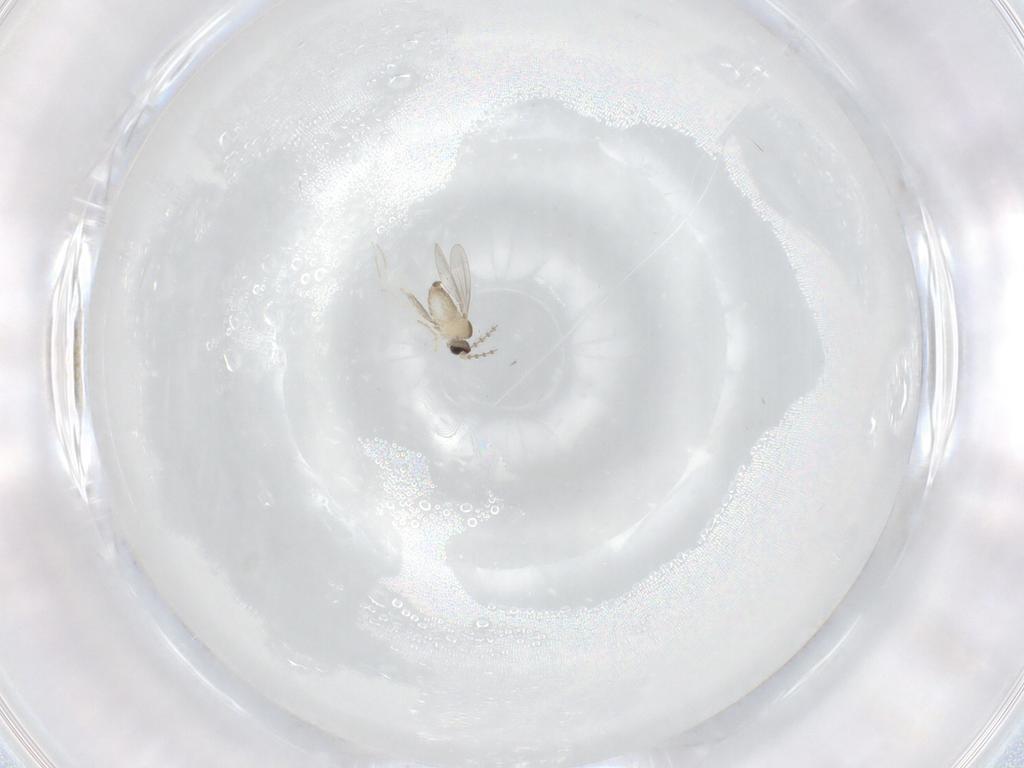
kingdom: Animalia
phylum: Arthropoda
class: Insecta
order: Diptera
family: Cecidomyiidae
